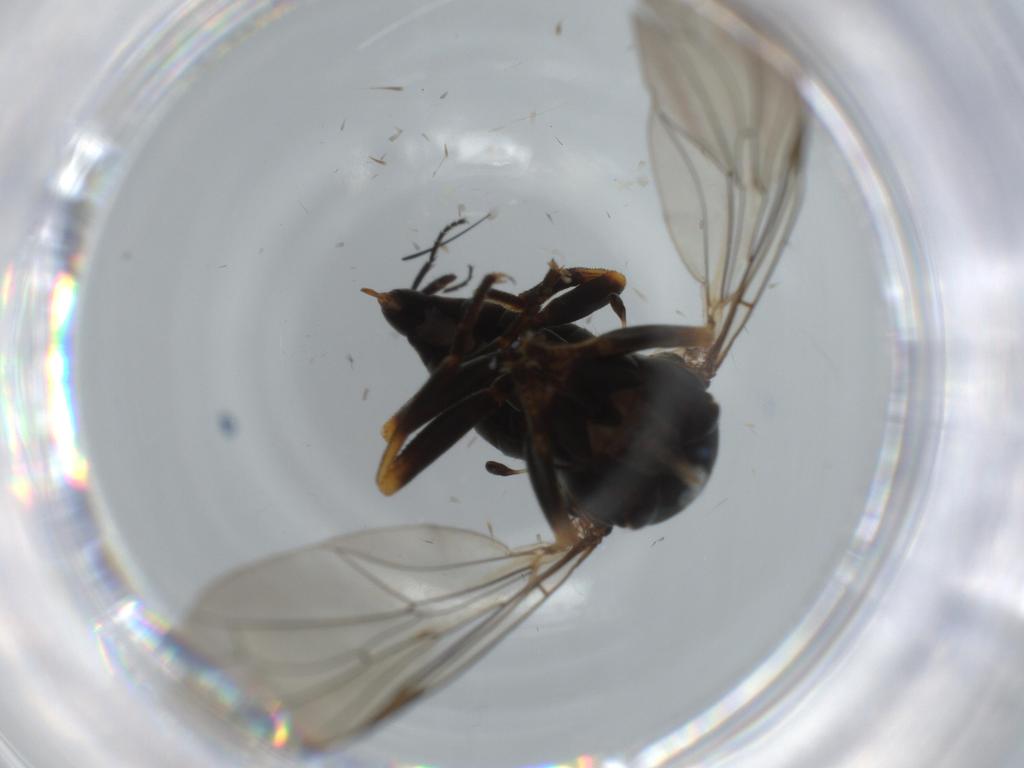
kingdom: Animalia
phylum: Arthropoda
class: Insecta
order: Diptera
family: Pipunculidae
